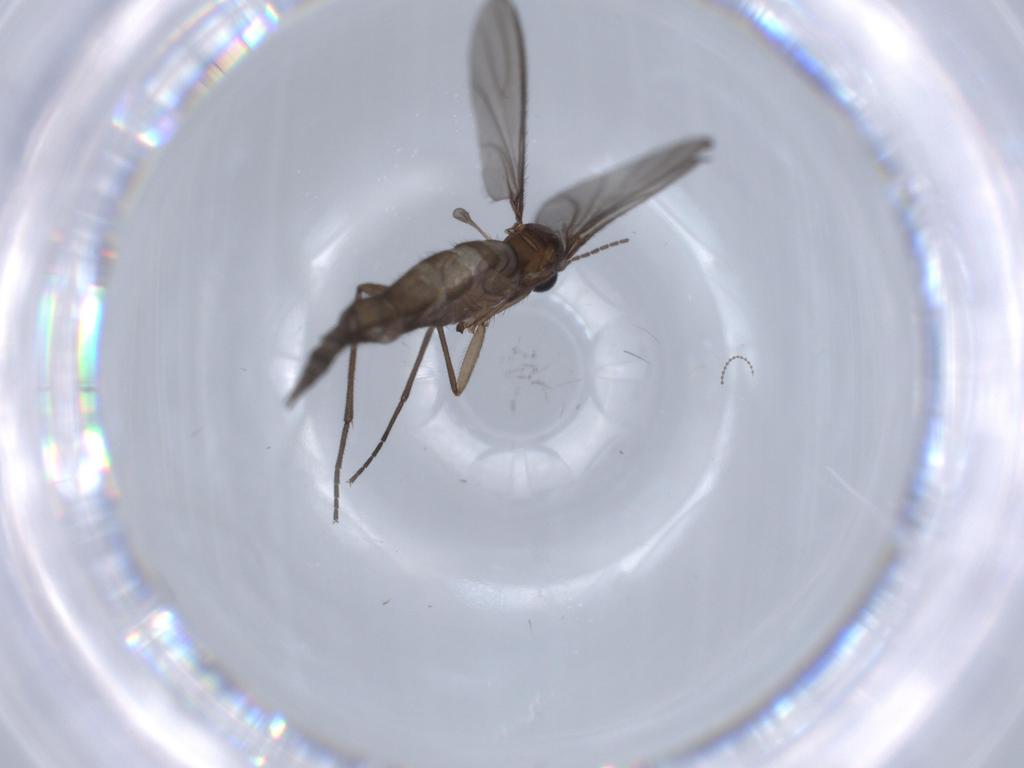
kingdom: Animalia
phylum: Arthropoda
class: Insecta
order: Diptera
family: Sciaridae
